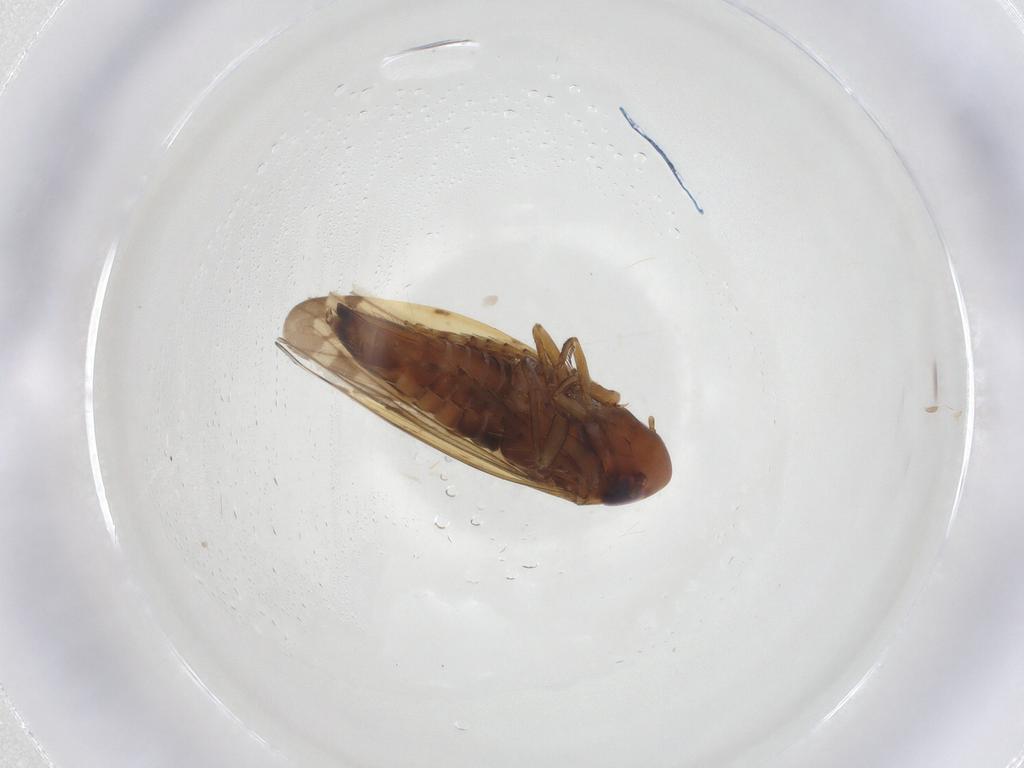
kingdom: Animalia
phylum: Arthropoda
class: Insecta
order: Hemiptera
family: Cicadellidae
